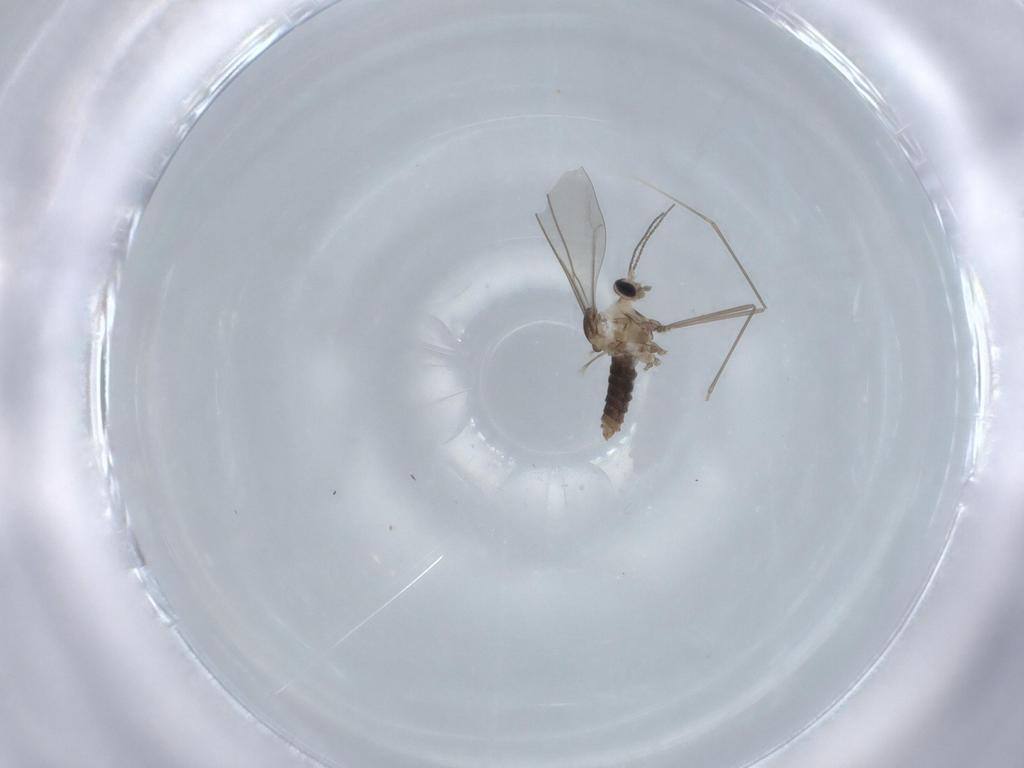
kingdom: Animalia
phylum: Arthropoda
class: Insecta
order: Diptera
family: Cecidomyiidae
